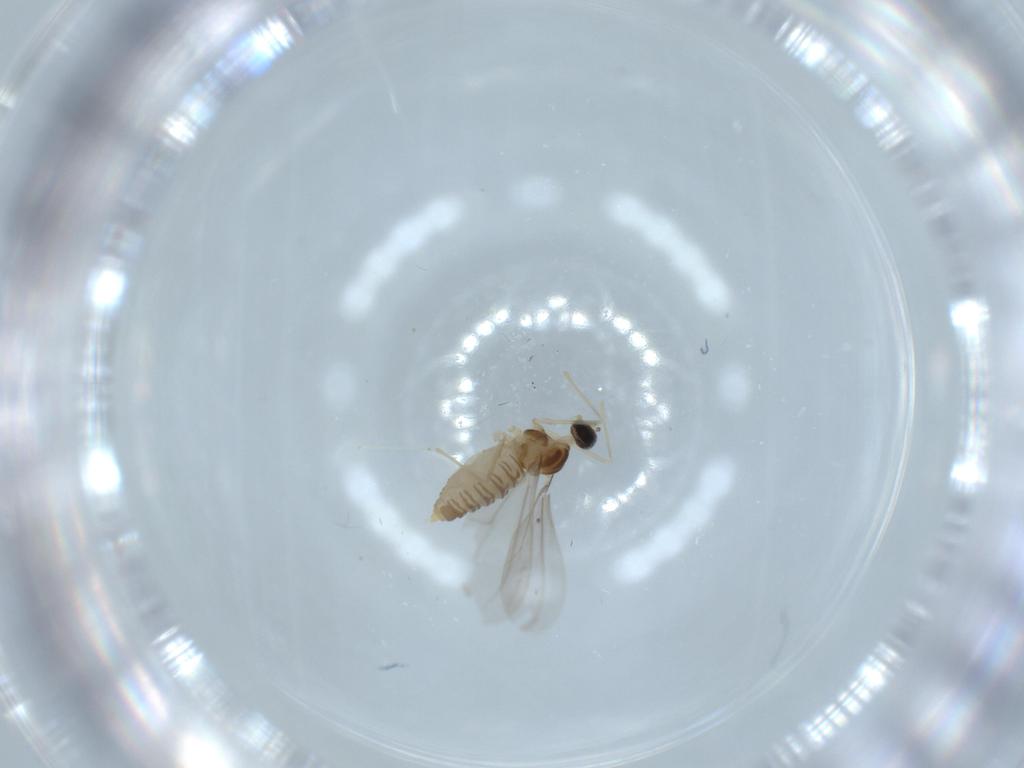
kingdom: Animalia
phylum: Arthropoda
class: Insecta
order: Diptera
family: Cecidomyiidae
